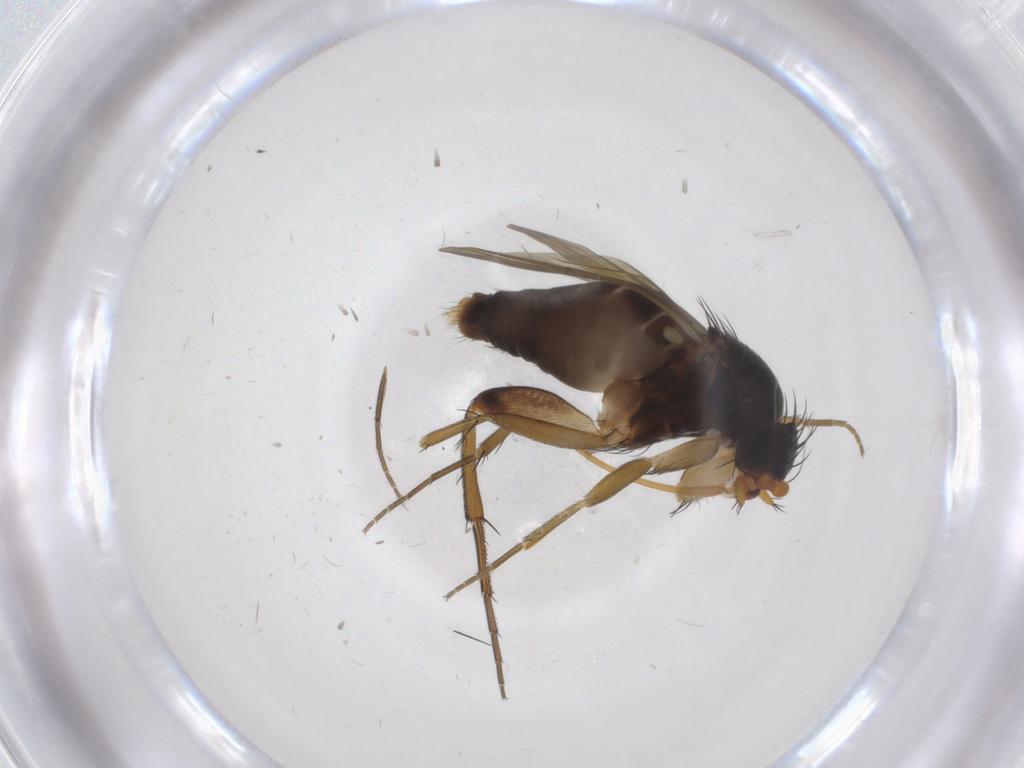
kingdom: Animalia
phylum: Arthropoda
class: Insecta
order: Diptera
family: Phoridae
